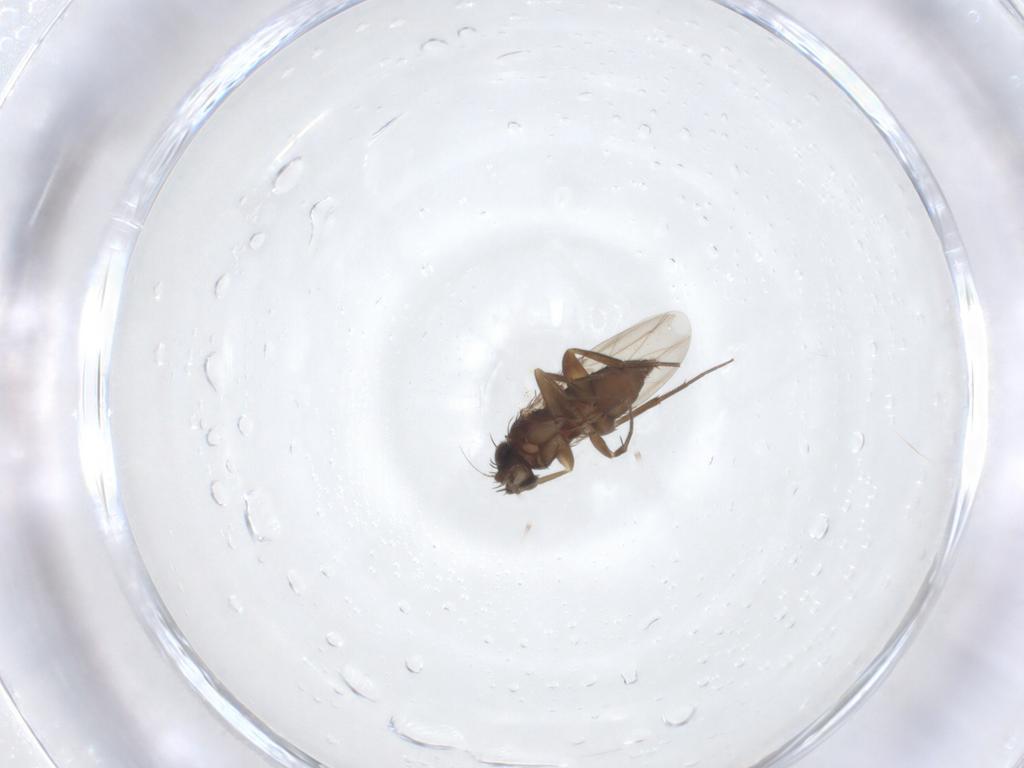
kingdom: Animalia
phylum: Arthropoda
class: Insecta
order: Diptera
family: Phoridae
